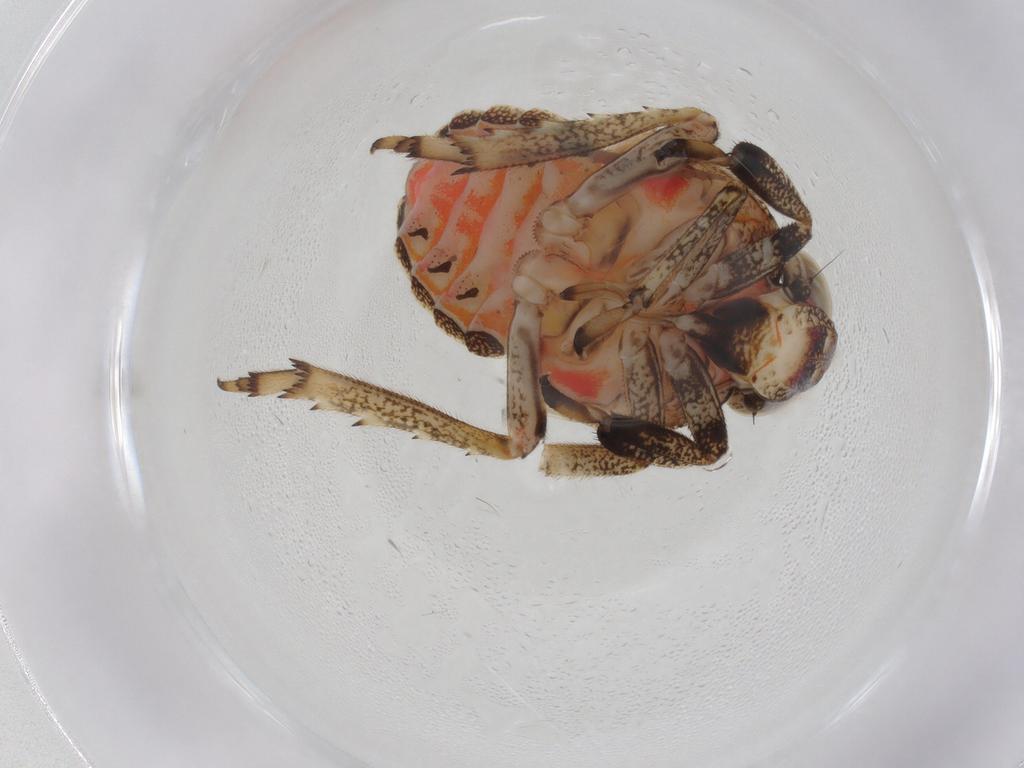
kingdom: Animalia
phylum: Arthropoda
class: Insecta
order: Hemiptera
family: Issidae
